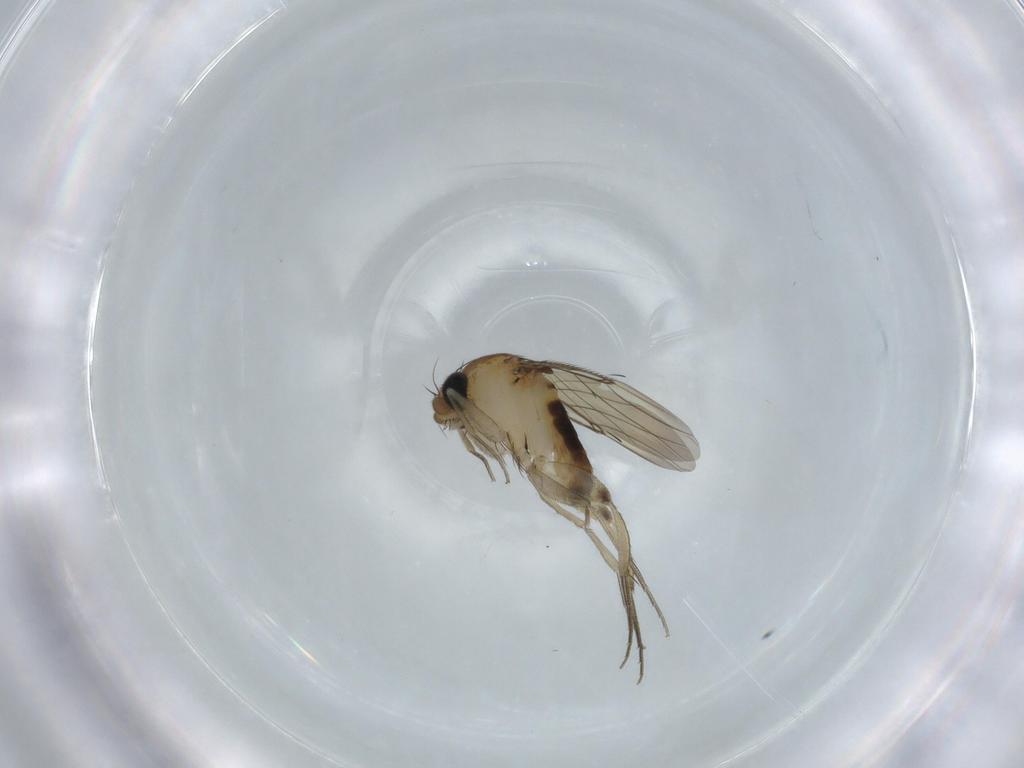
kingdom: Animalia
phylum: Arthropoda
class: Insecta
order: Diptera
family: Phoridae
